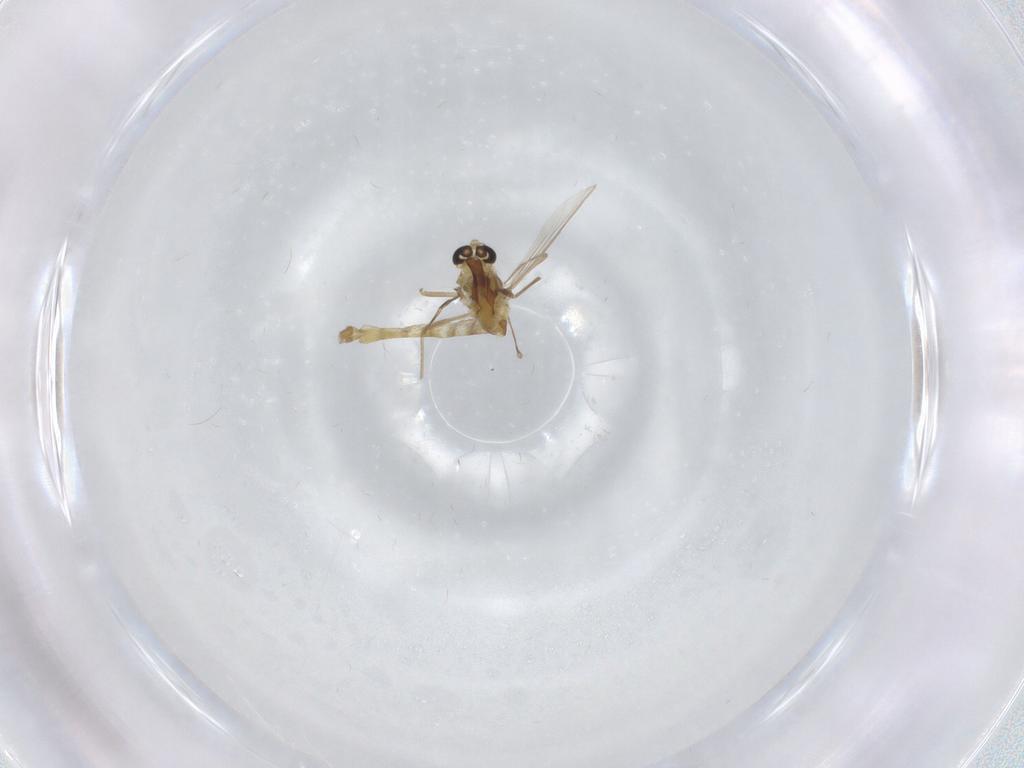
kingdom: Animalia
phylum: Arthropoda
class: Insecta
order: Diptera
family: Chironomidae
